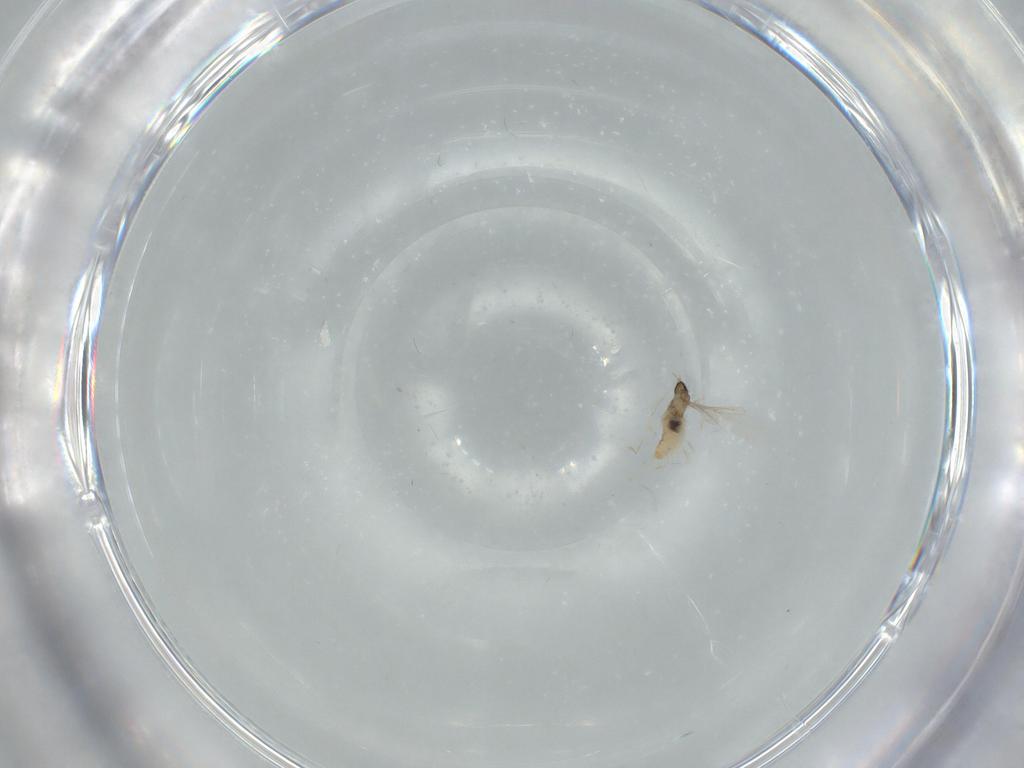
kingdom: Animalia
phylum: Arthropoda
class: Insecta
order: Diptera
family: Cecidomyiidae
